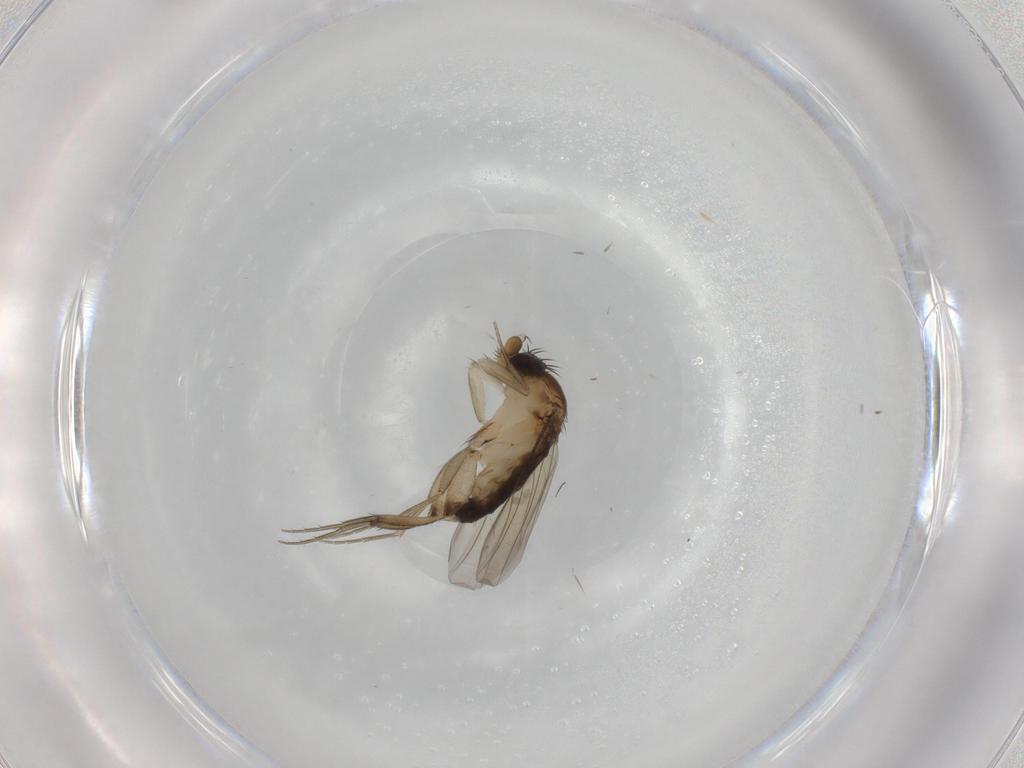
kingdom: Animalia
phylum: Arthropoda
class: Insecta
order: Diptera
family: Phoridae
